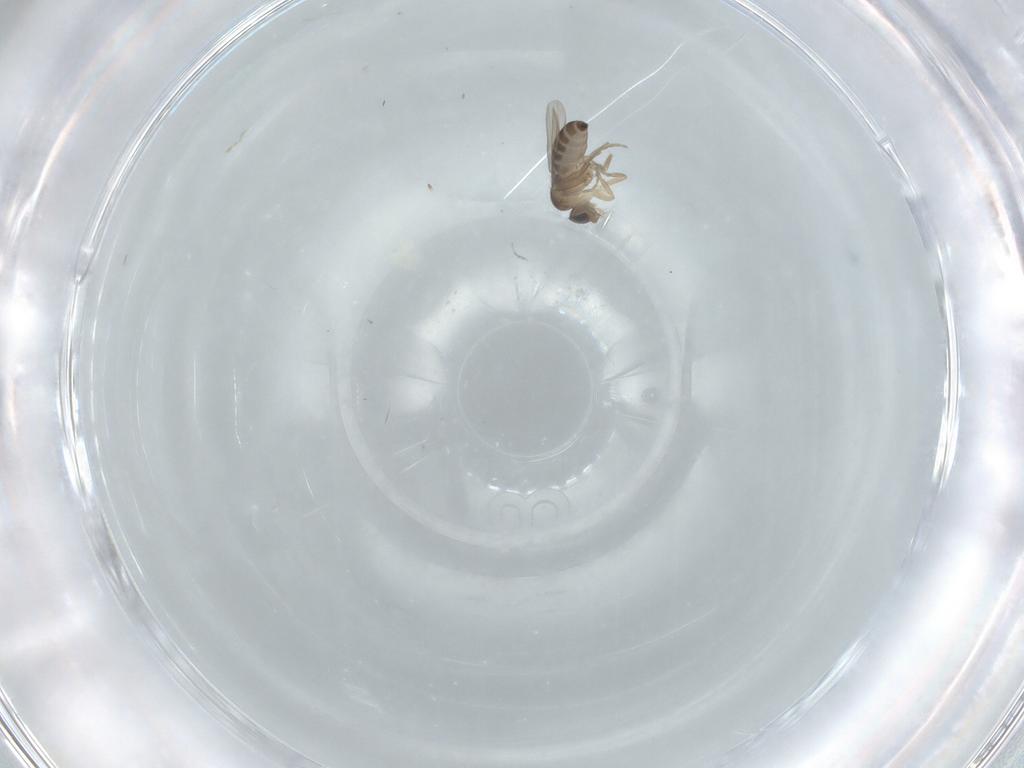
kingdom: Animalia
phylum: Arthropoda
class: Insecta
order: Diptera
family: Phoridae
